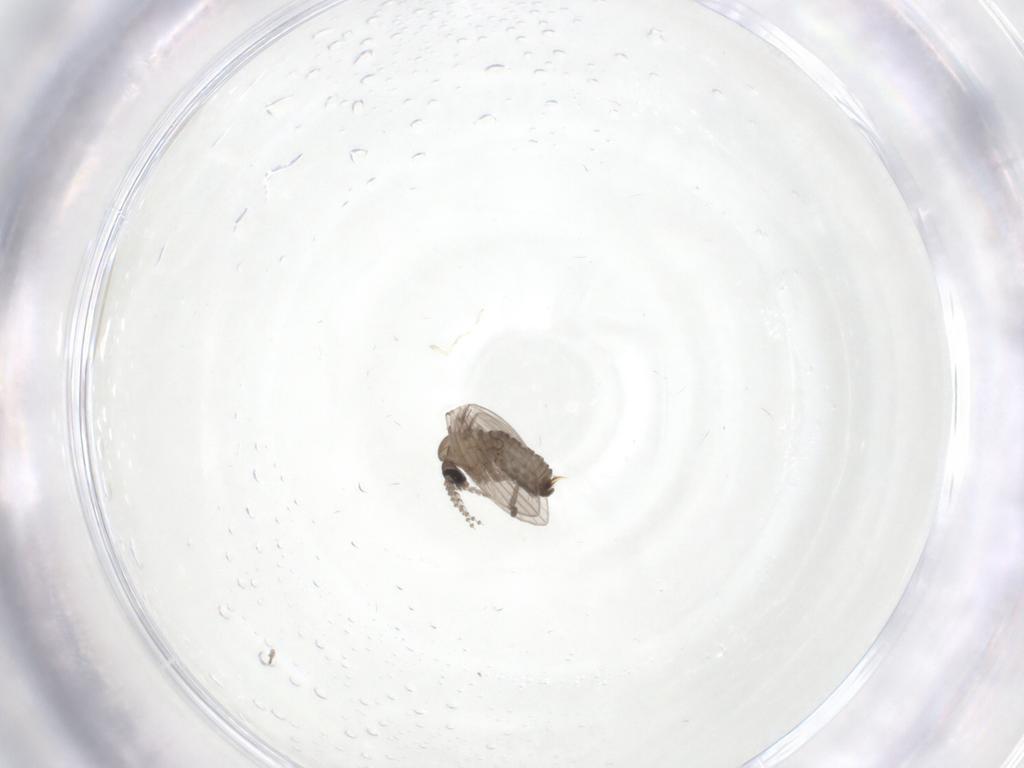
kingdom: Animalia
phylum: Arthropoda
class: Insecta
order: Diptera
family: Psychodidae
